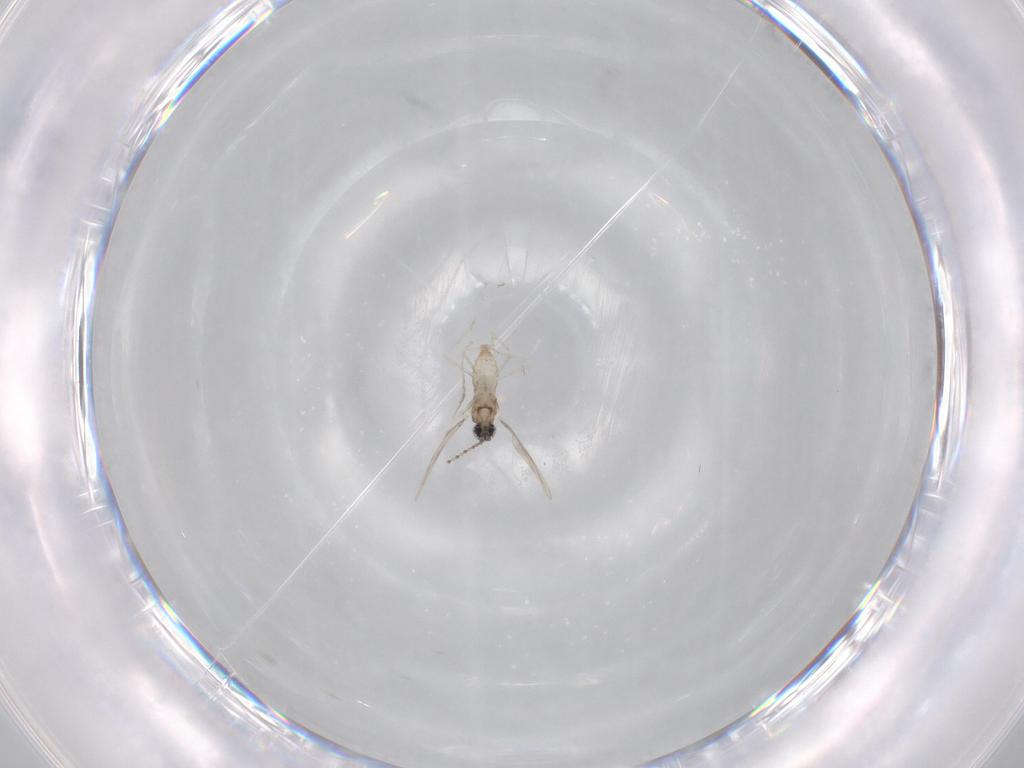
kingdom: Animalia
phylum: Arthropoda
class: Insecta
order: Diptera
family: Cecidomyiidae
